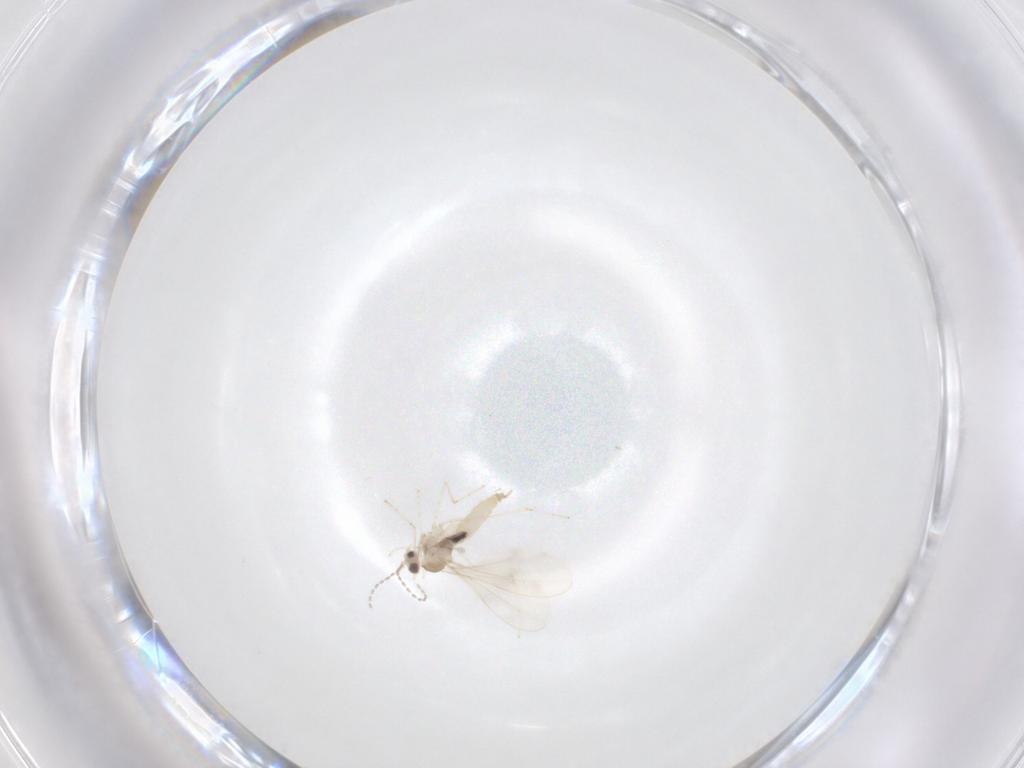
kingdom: Animalia
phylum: Arthropoda
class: Insecta
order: Diptera
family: Cecidomyiidae
